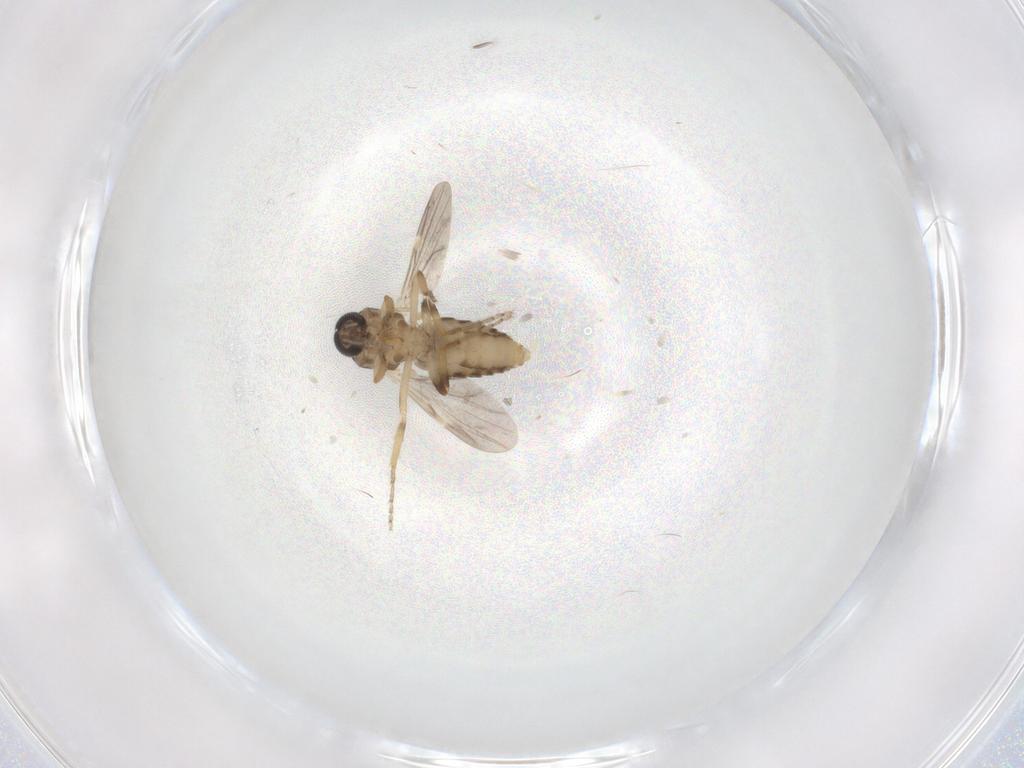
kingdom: Animalia
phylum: Arthropoda
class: Insecta
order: Diptera
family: Ceratopogonidae
